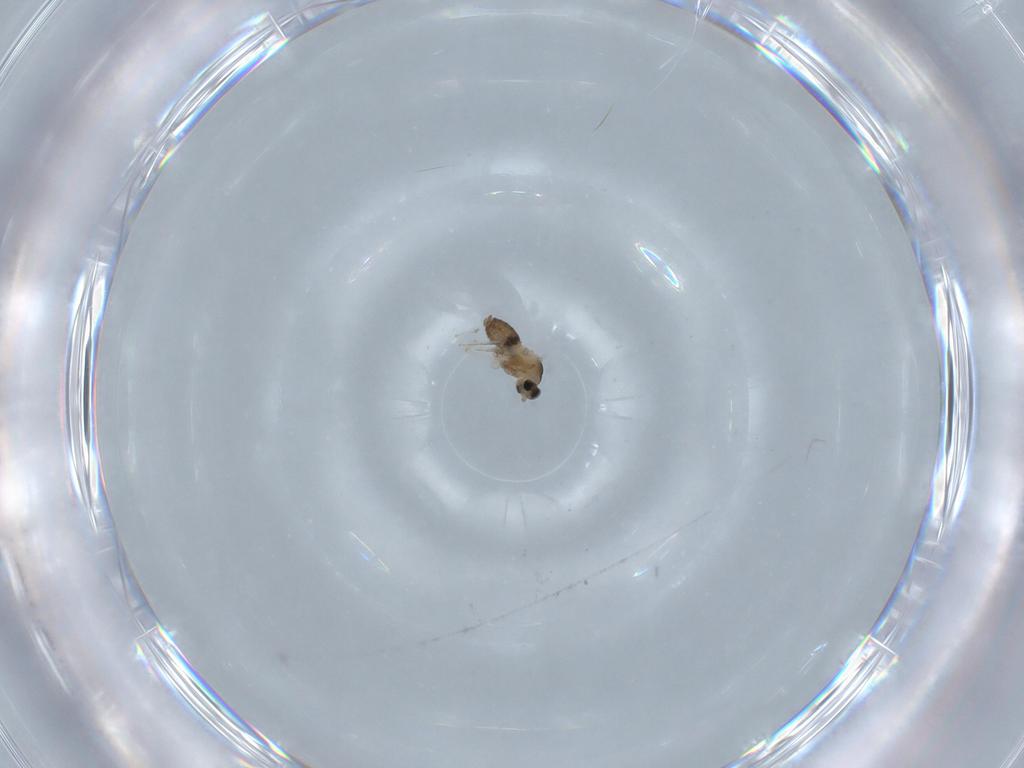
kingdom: Animalia
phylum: Arthropoda
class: Insecta
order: Diptera
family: Cecidomyiidae
